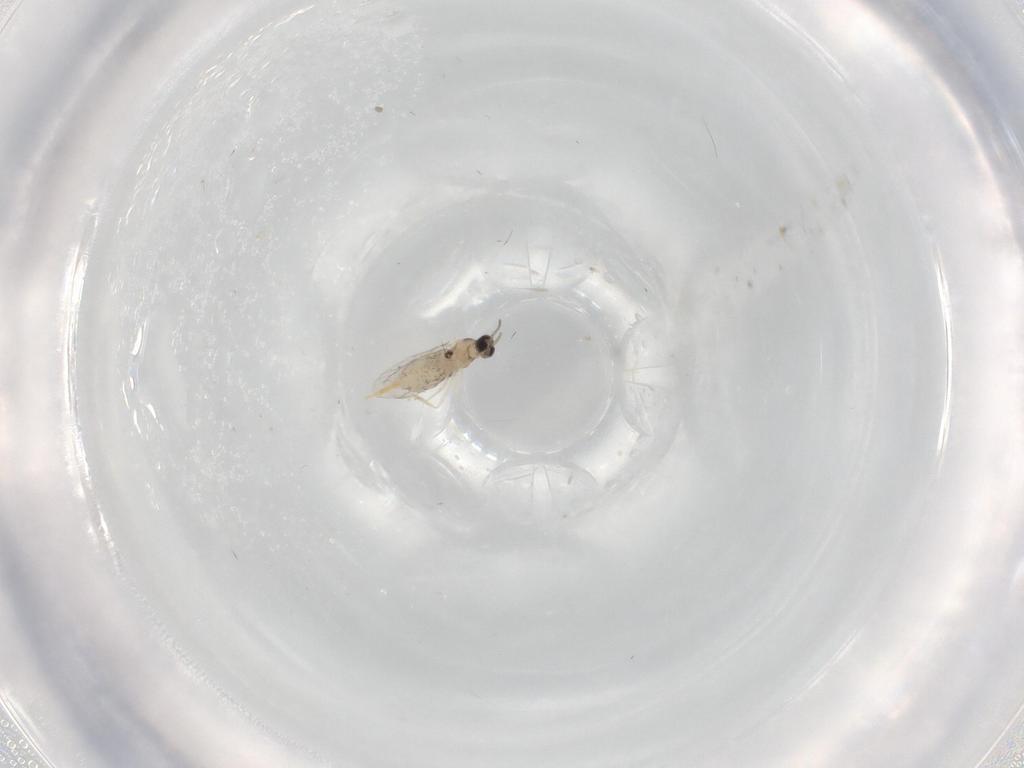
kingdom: Animalia
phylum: Arthropoda
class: Insecta
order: Diptera
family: Cecidomyiidae
